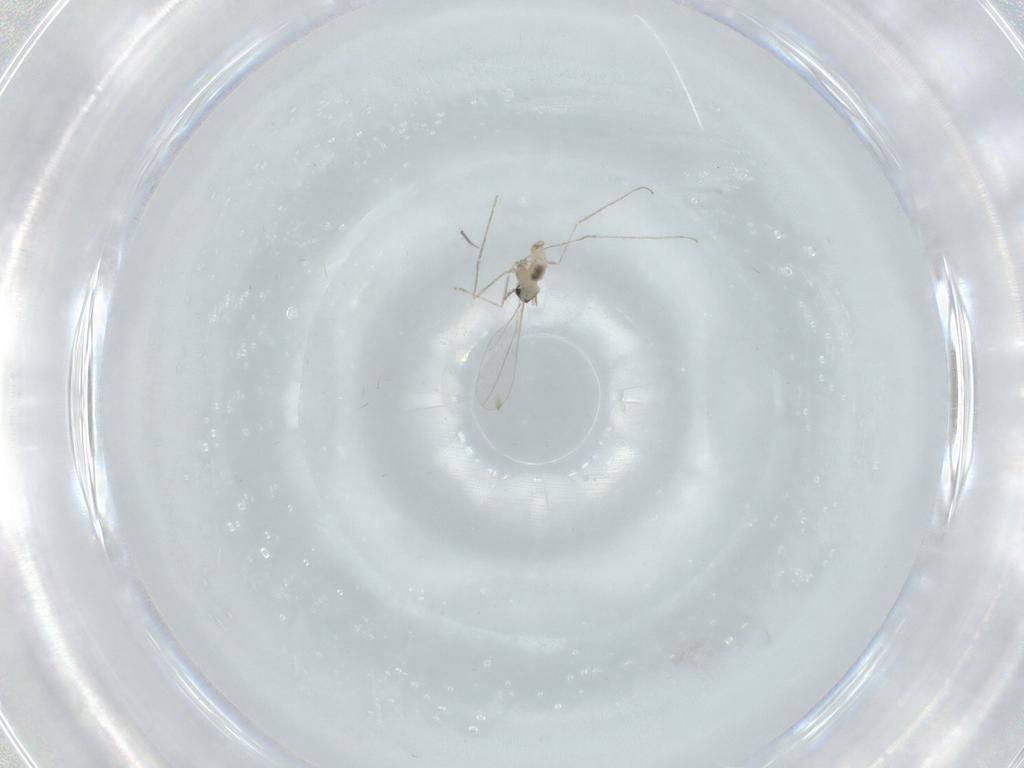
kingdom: Animalia
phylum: Arthropoda
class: Insecta
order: Diptera
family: Cecidomyiidae
